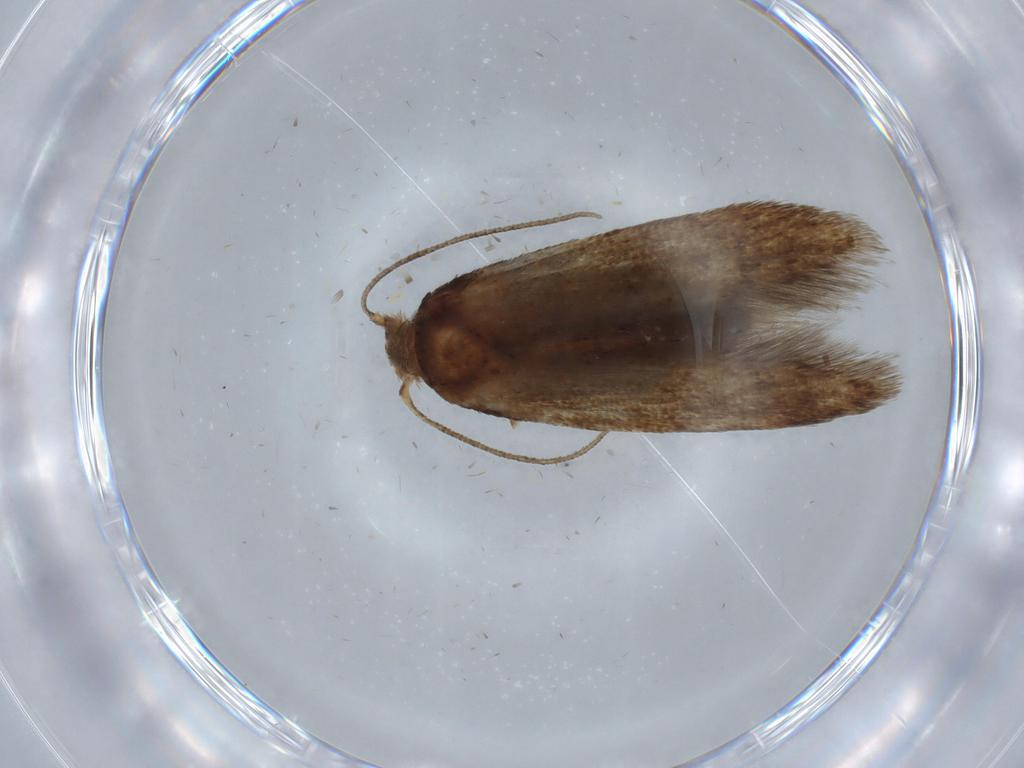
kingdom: Animalia
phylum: Arthropoda
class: Insecta
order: Lepidoptera
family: Blastobasidae
